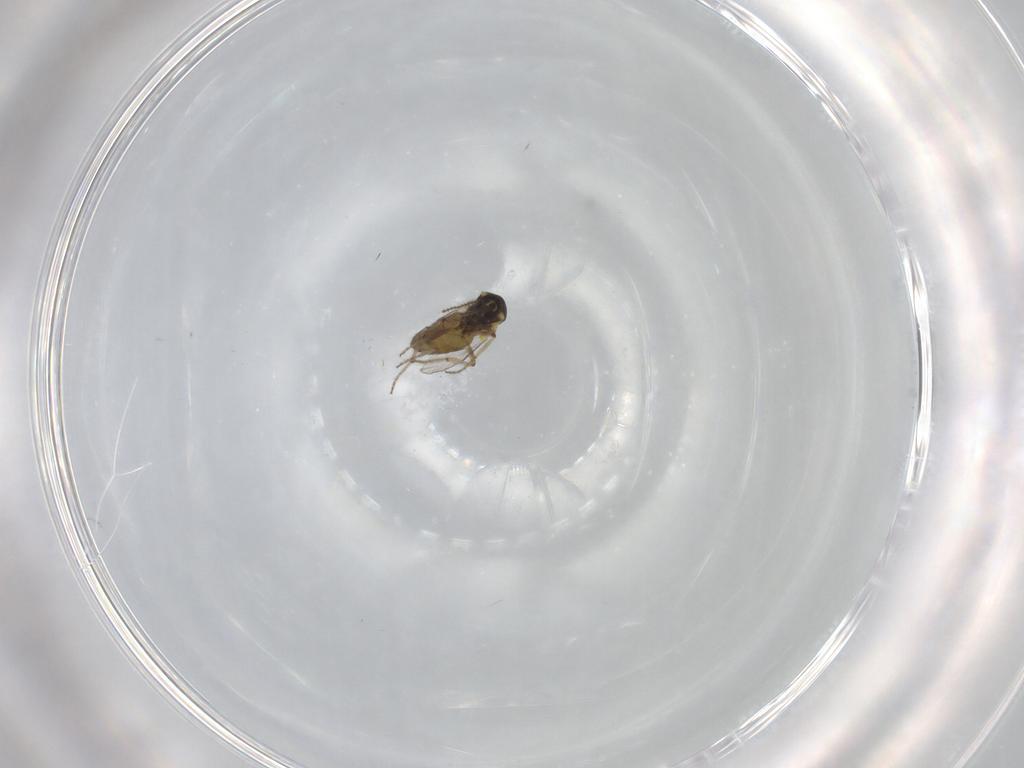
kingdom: Animalia
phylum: Arthropoda
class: Insecta
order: Diptera
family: Ceratopogonidae
